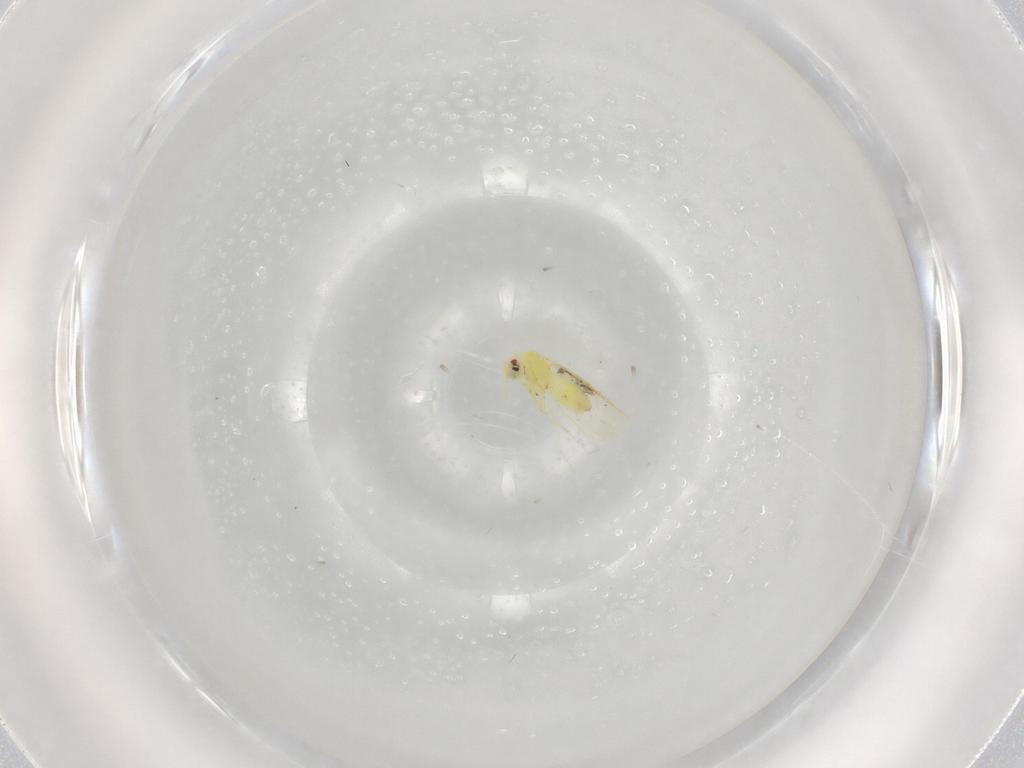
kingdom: Animalia
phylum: Arthropoda
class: Insecta
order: Hemiptera
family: Aleyrodidae
